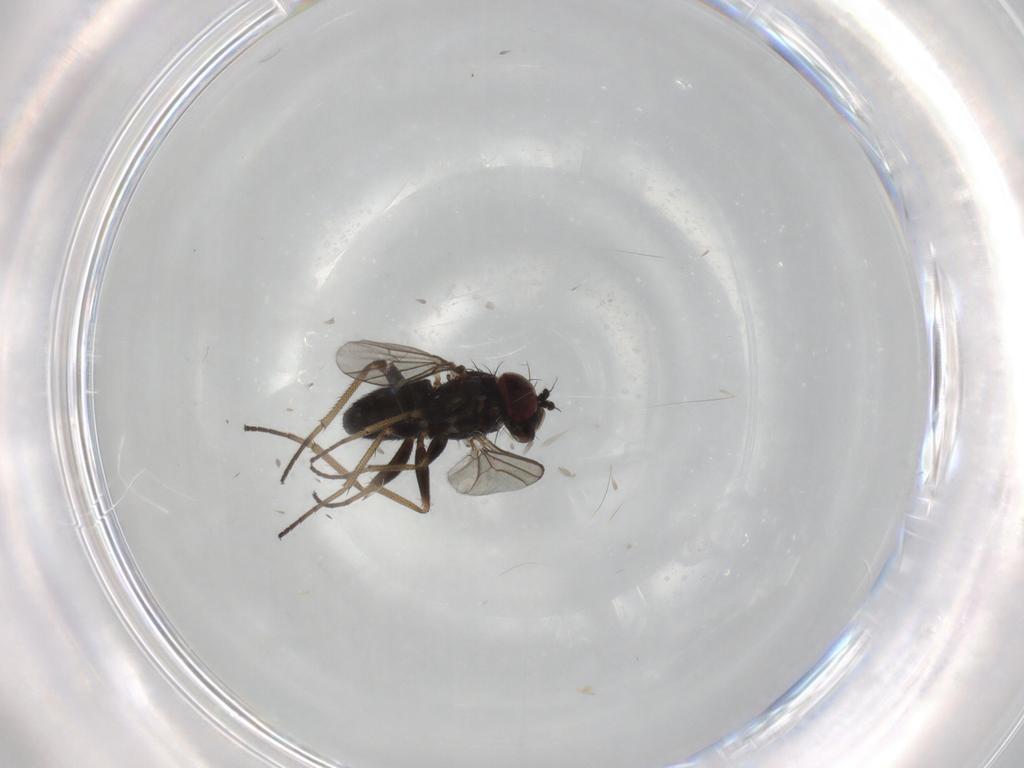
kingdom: Animalia
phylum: Arthropoda
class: Insecta
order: Diptera
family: Dolichopodidae
